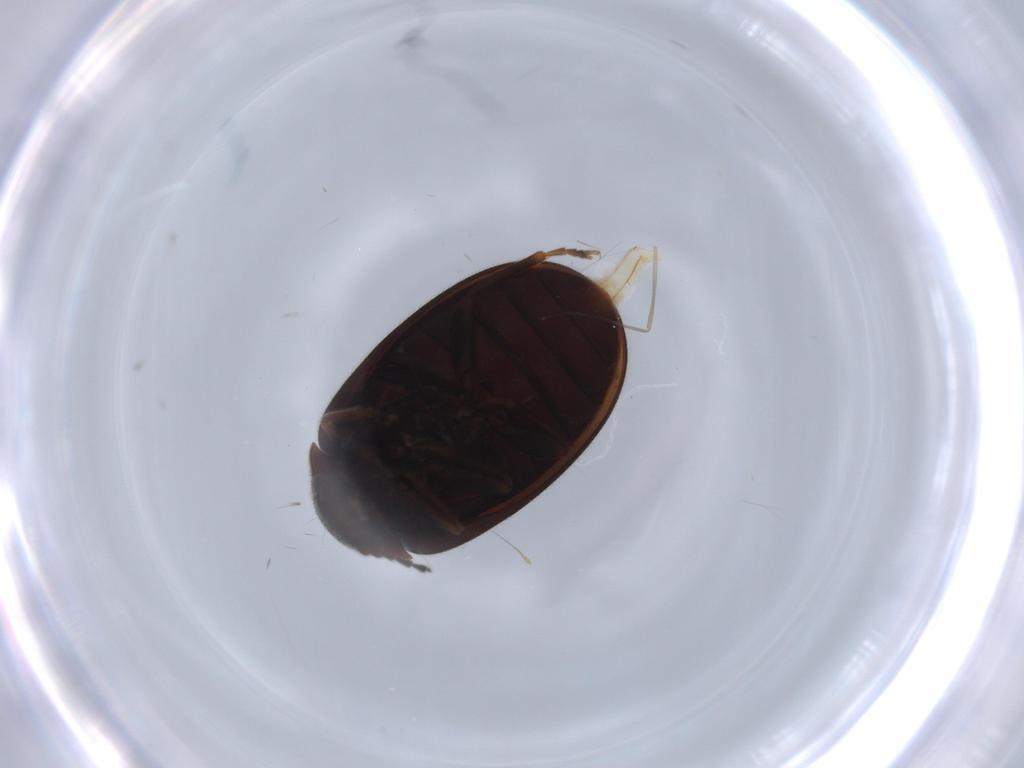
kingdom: Animalia
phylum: Arthropoda
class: Insecta
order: Coleoptera
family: Scirtidae
